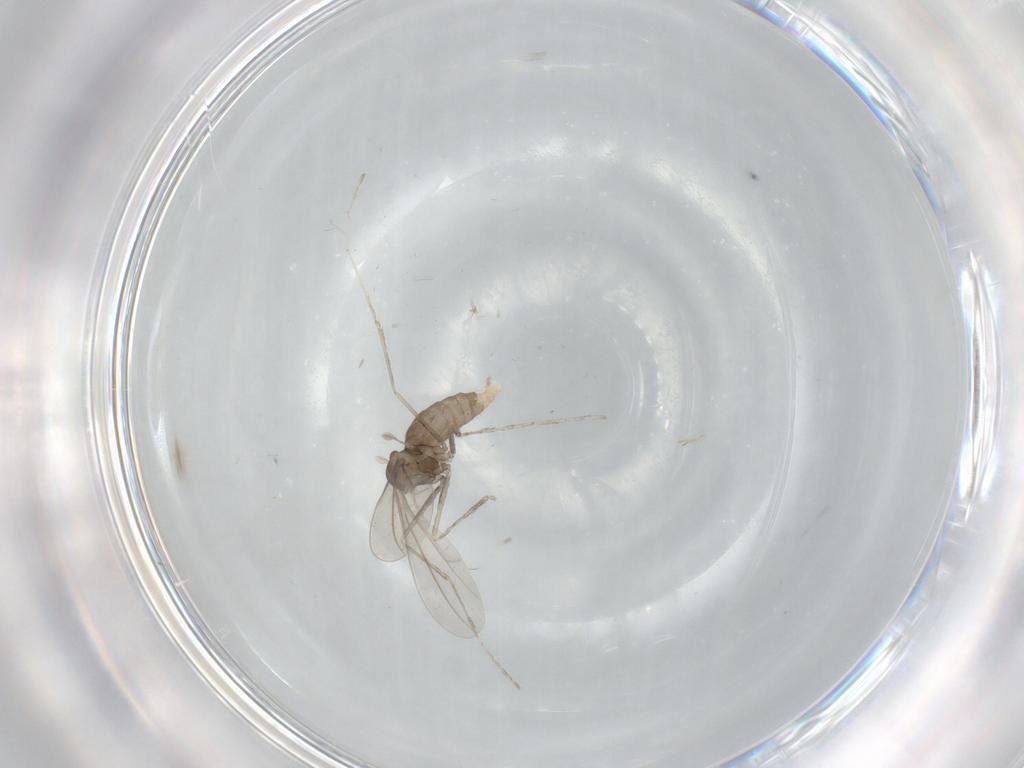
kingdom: Animalia
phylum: Arthropoda
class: Insecta
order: Diptera
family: Cecidomyiidae
